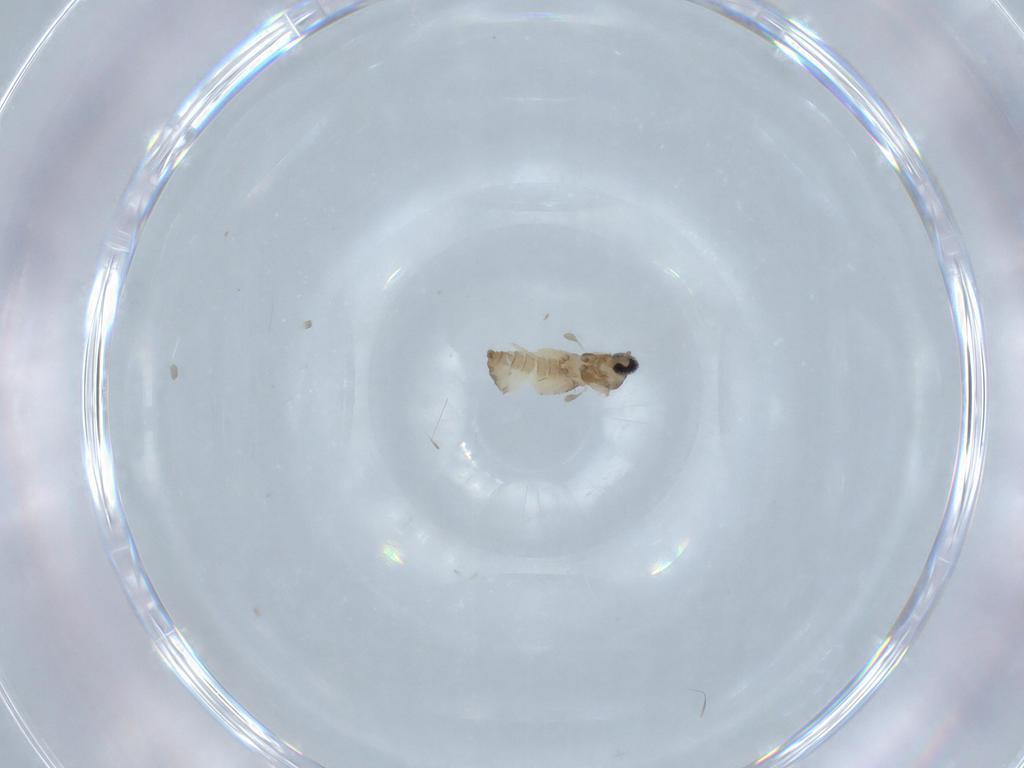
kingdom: Animalia
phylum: Arthropoda
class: Insecta
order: Diptera
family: Cecidomyiidae
